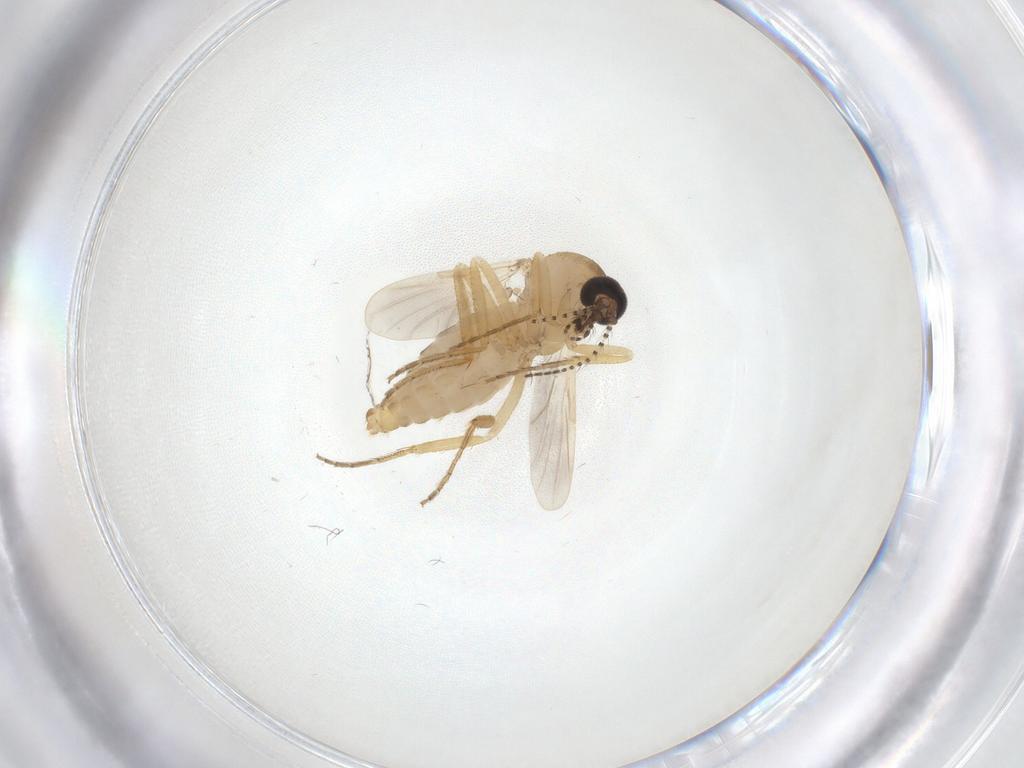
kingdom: Animalia
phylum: Arthropoda
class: Insecta
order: Diptera
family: Ceratopogonidae
